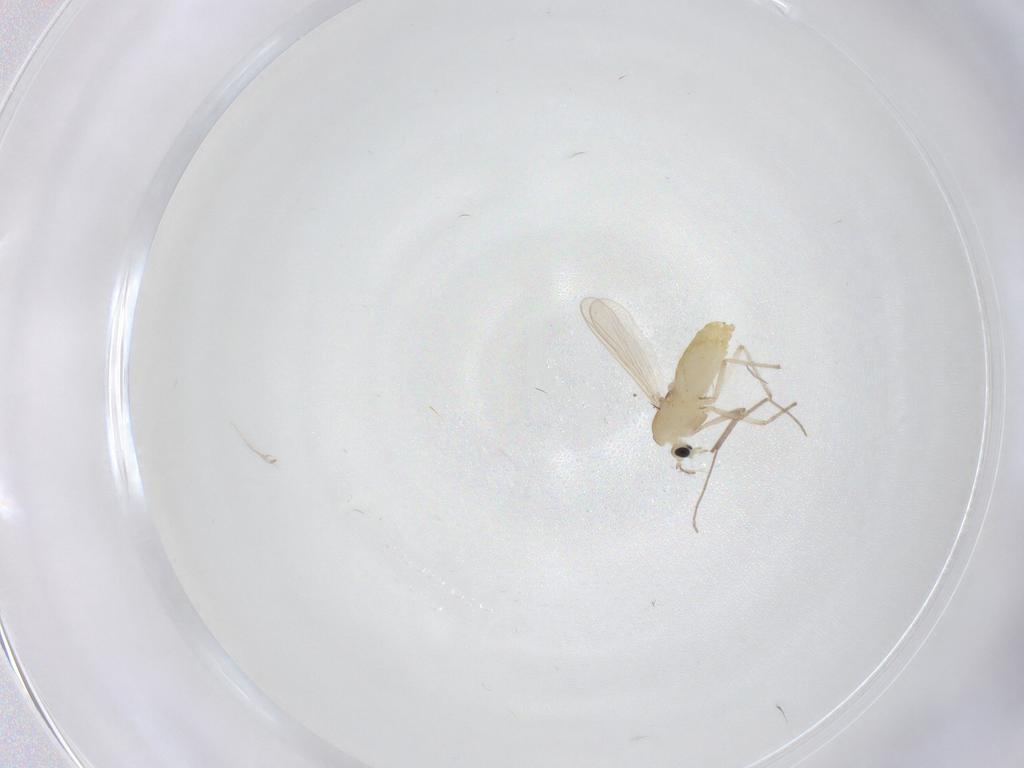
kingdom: Animalia
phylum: Arthropoda
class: Insecta
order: Diptera
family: Chironomidae
